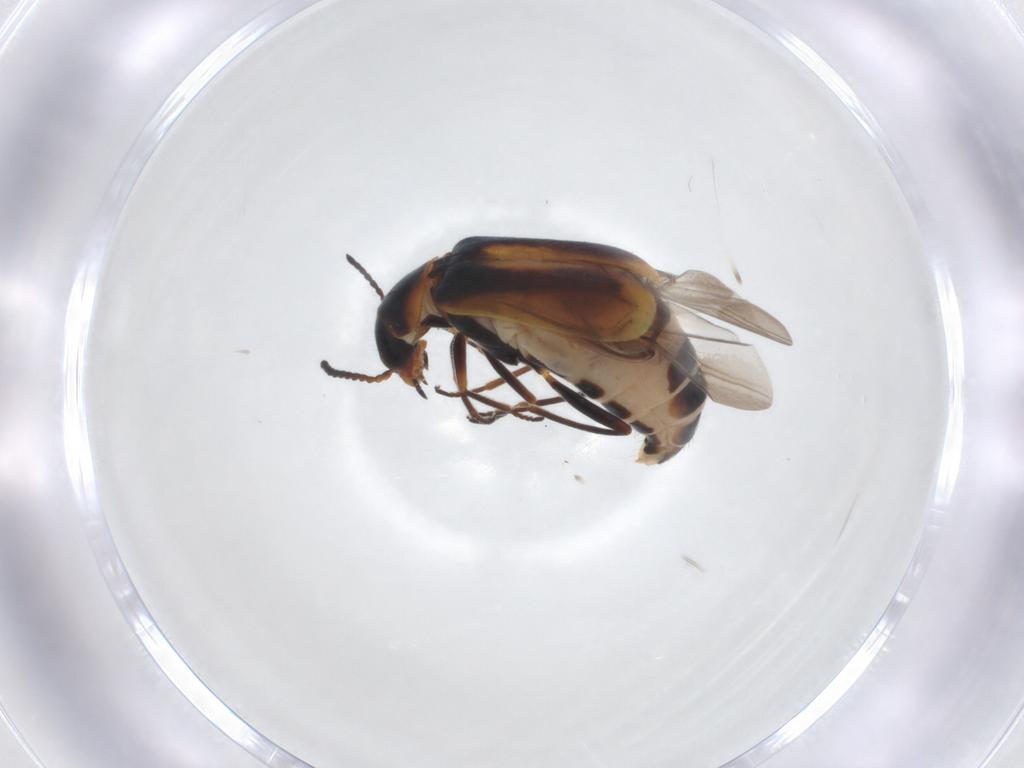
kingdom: Animalia
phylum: Arthropoda
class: Insecta
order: Coleoptera
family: Melyridae
